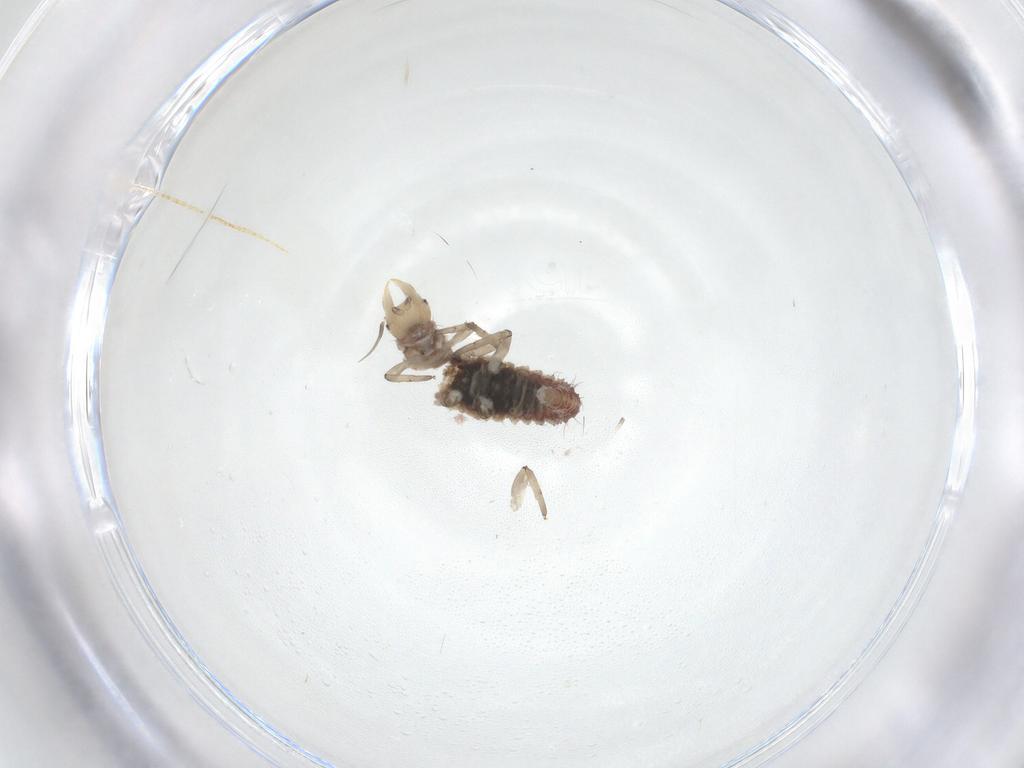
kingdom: Animalia
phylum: Arthropoda
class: Insecta
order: Neuroptera
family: Hemerobiidae
